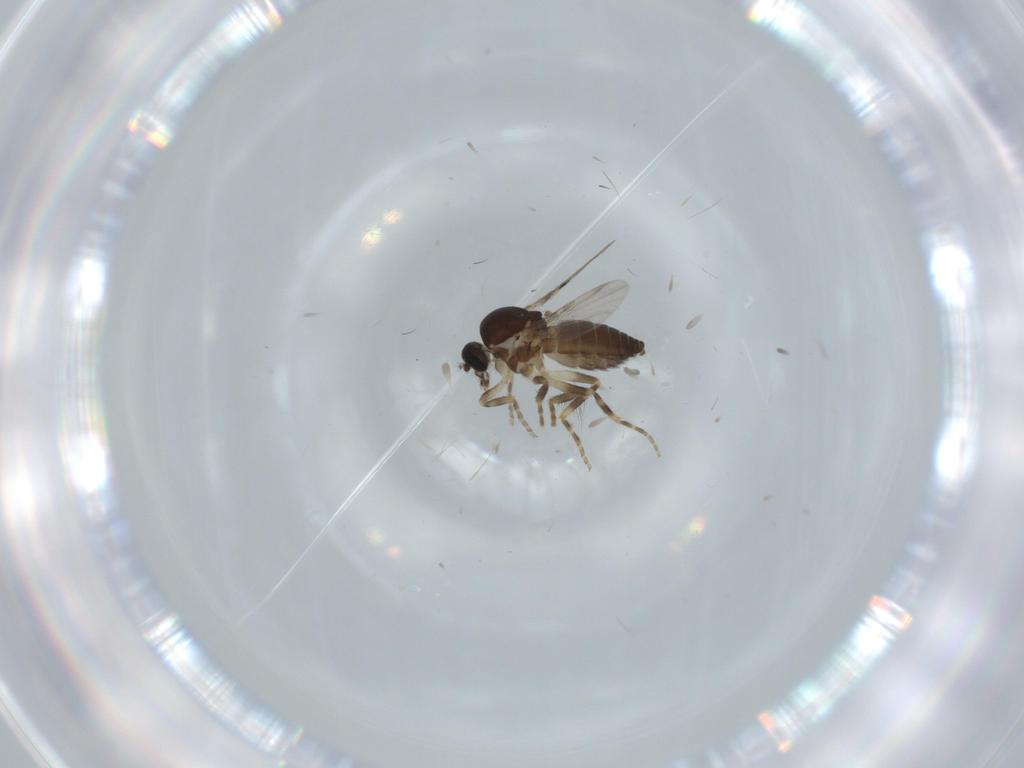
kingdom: Animalia
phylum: Arthropoda
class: Insecta
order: Diptera
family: Ceratopogonidae
